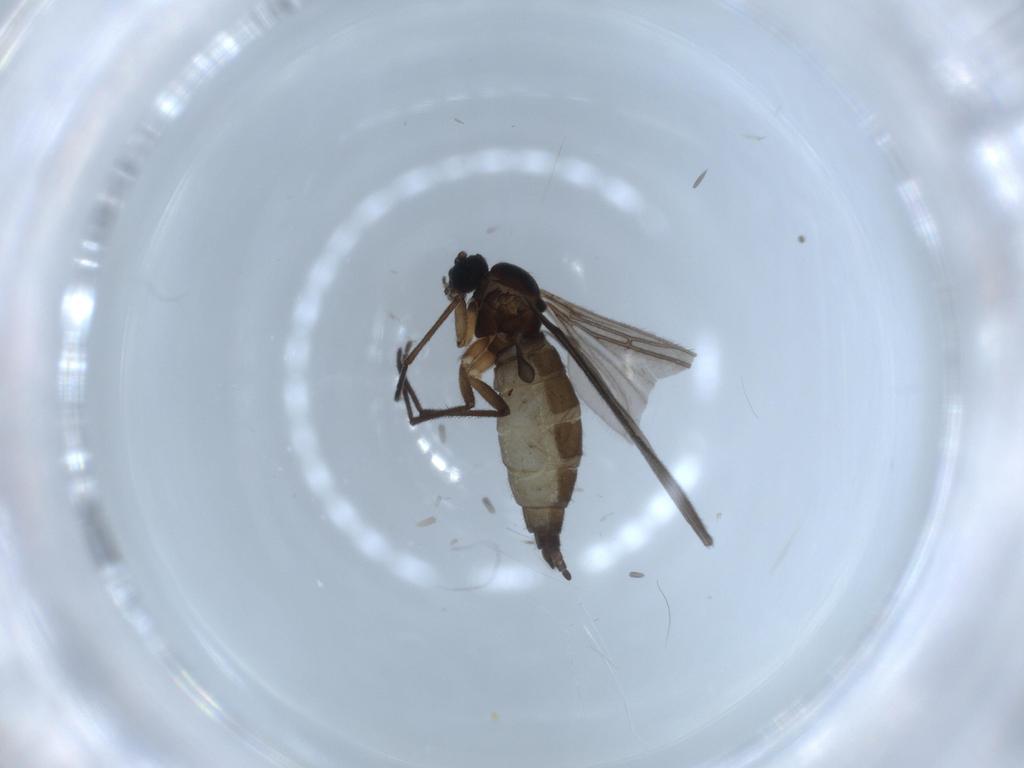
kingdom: Animalia
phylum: Arthropoda
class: Insecta
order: Diptera
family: Sciaridae
